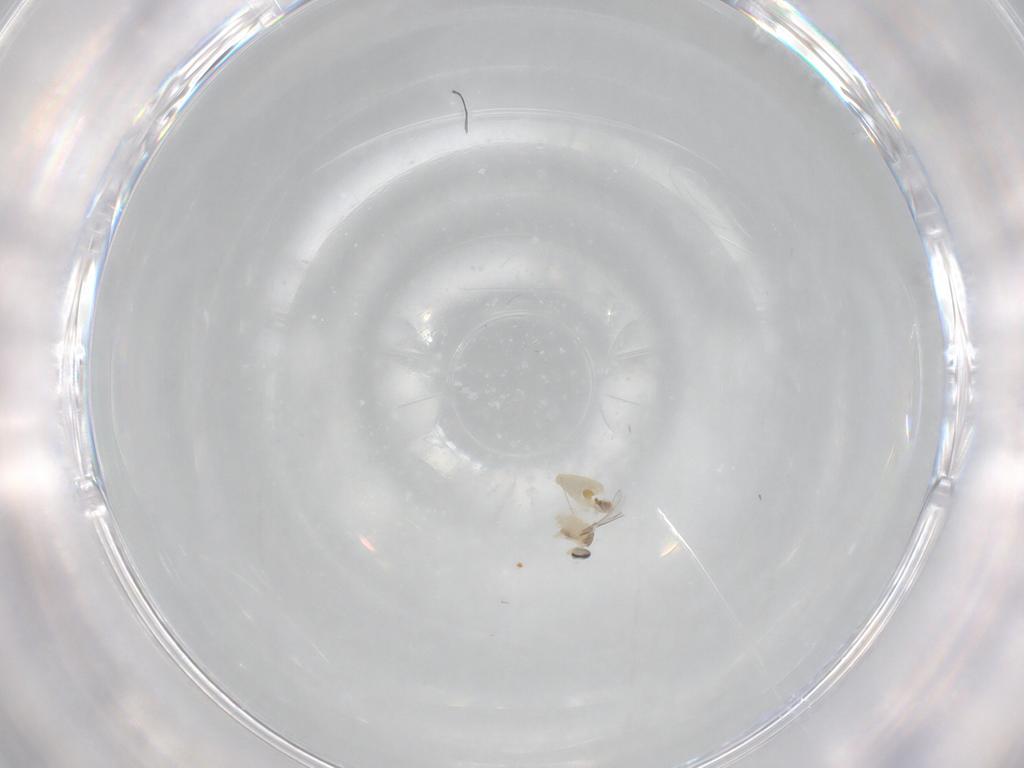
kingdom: Animalia
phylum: Arthropoda
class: Insecta
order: Diptera
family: Cecidomyiidae
